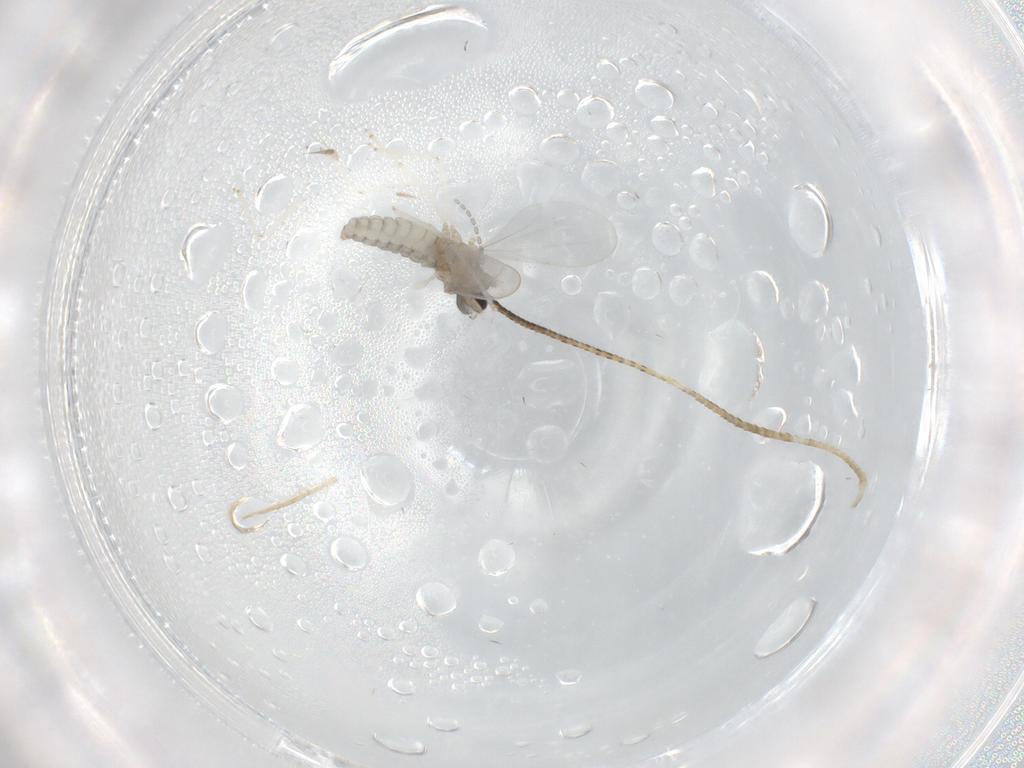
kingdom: Animalia
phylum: Arthropoda
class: Insecta
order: Diptera
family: Cecidomyiidae
